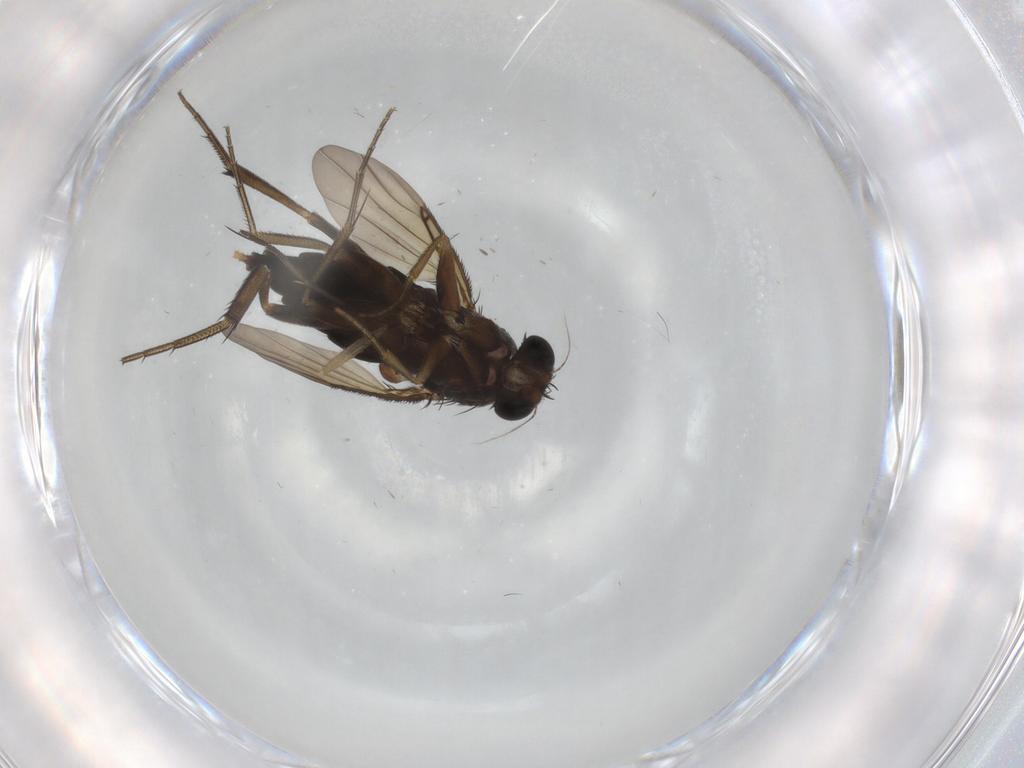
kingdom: Animalia
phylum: Arthropoda
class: Insecta
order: Diptera
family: Phoridae
